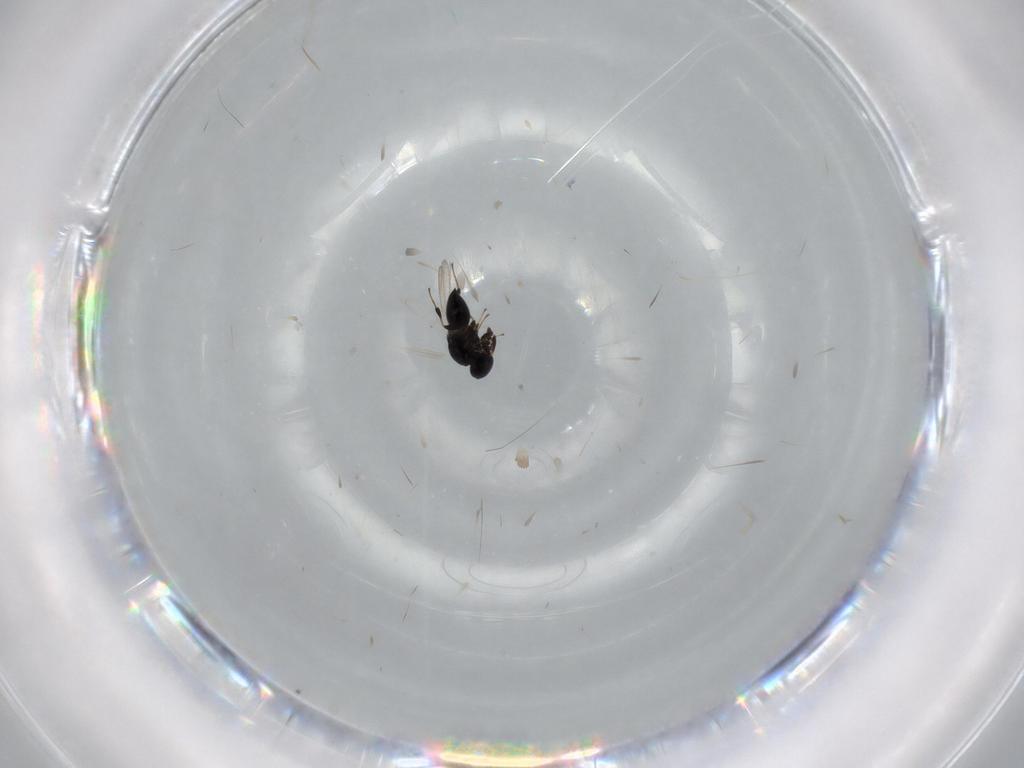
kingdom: Animalia
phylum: Arthropoda
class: Insecta
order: Hymenoptera
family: Platygastridae
